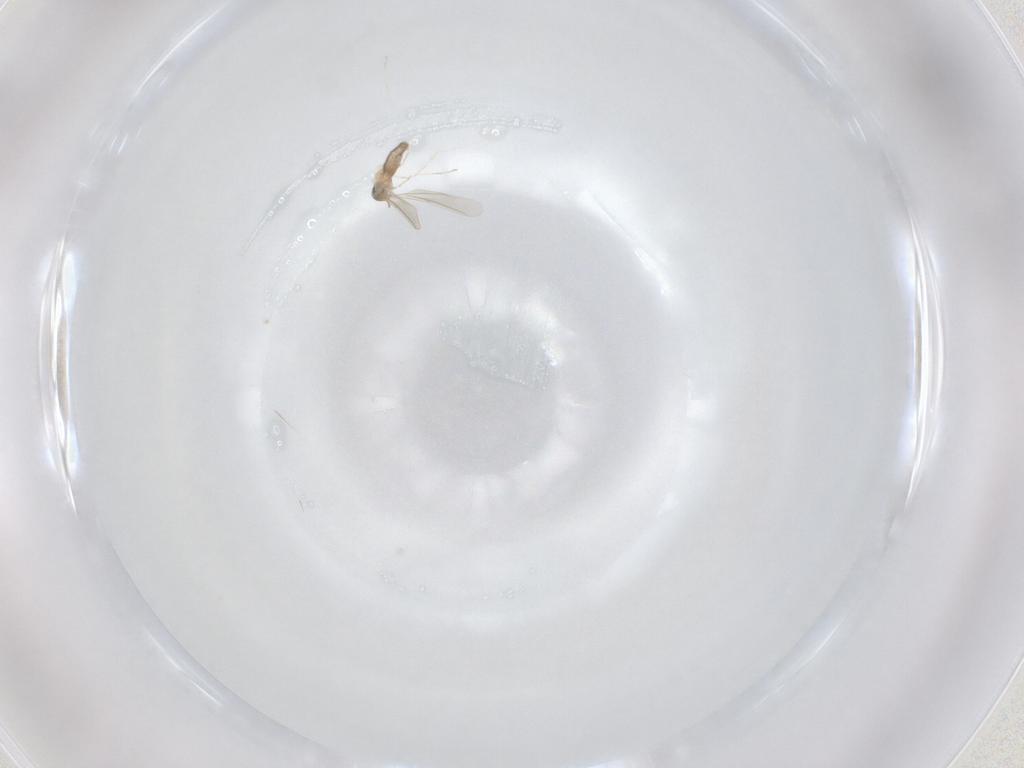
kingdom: Animalia
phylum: Arthropoda
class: Insecta
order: Diptera
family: Cecidomyiidae
